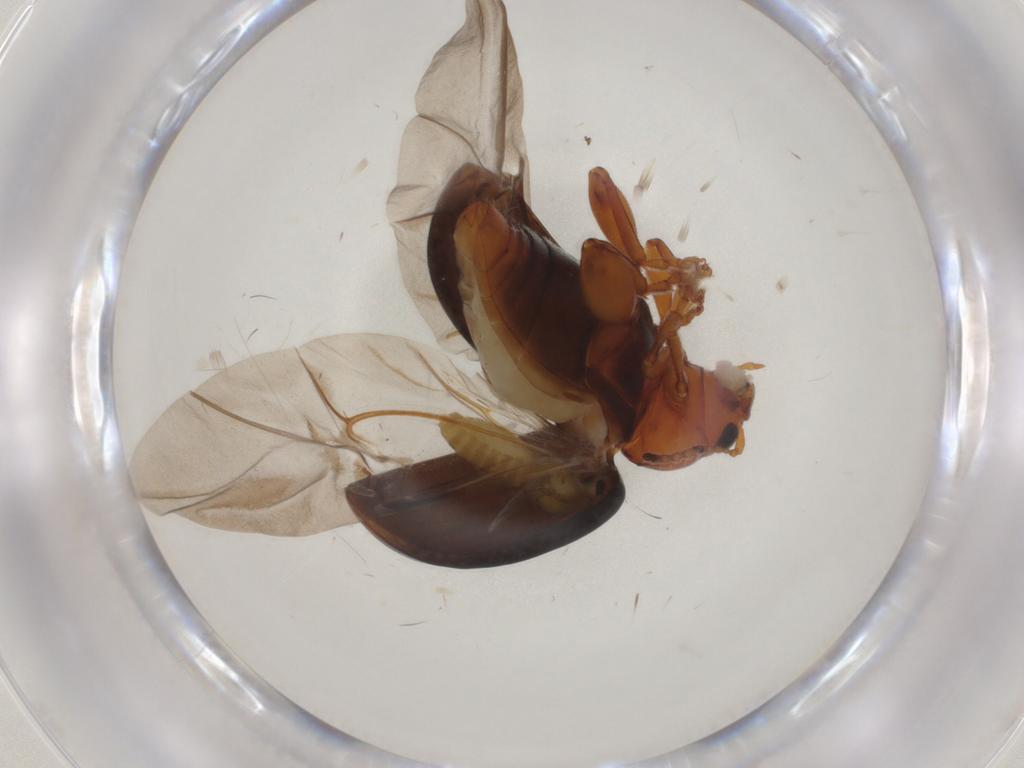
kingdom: Animalia
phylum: Arthropoda
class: Insecta
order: Diptera
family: Chironomidae
